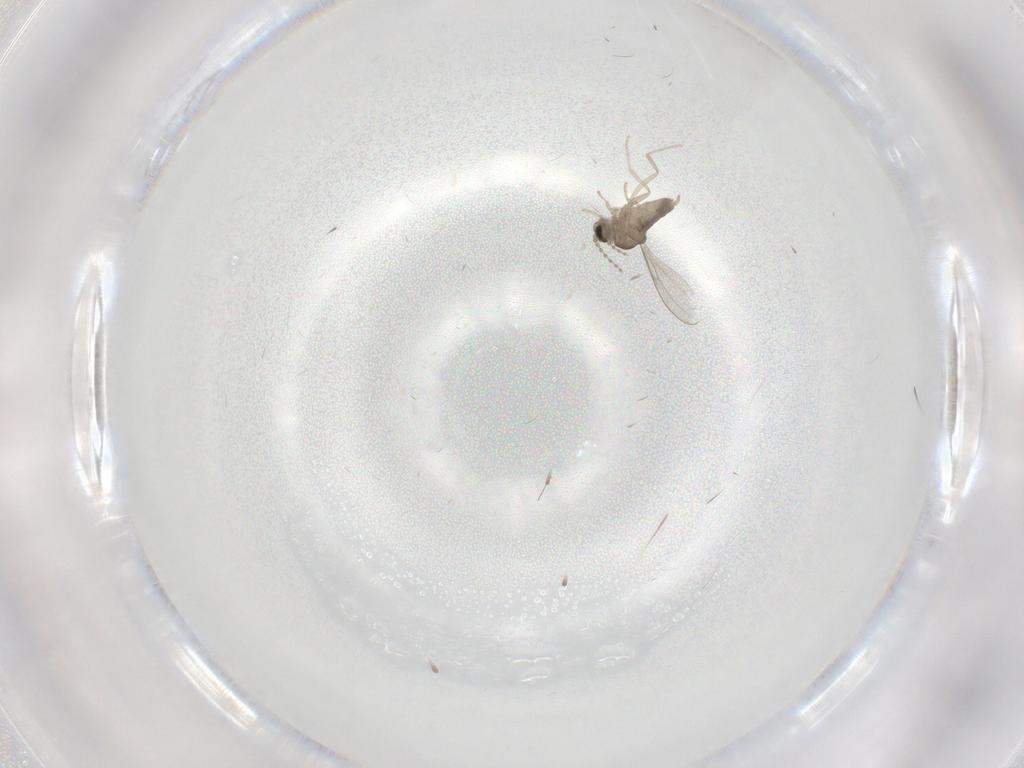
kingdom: Animalia
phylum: Arthropoda
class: Insecta
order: Diptera
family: Cecidomyiidae
